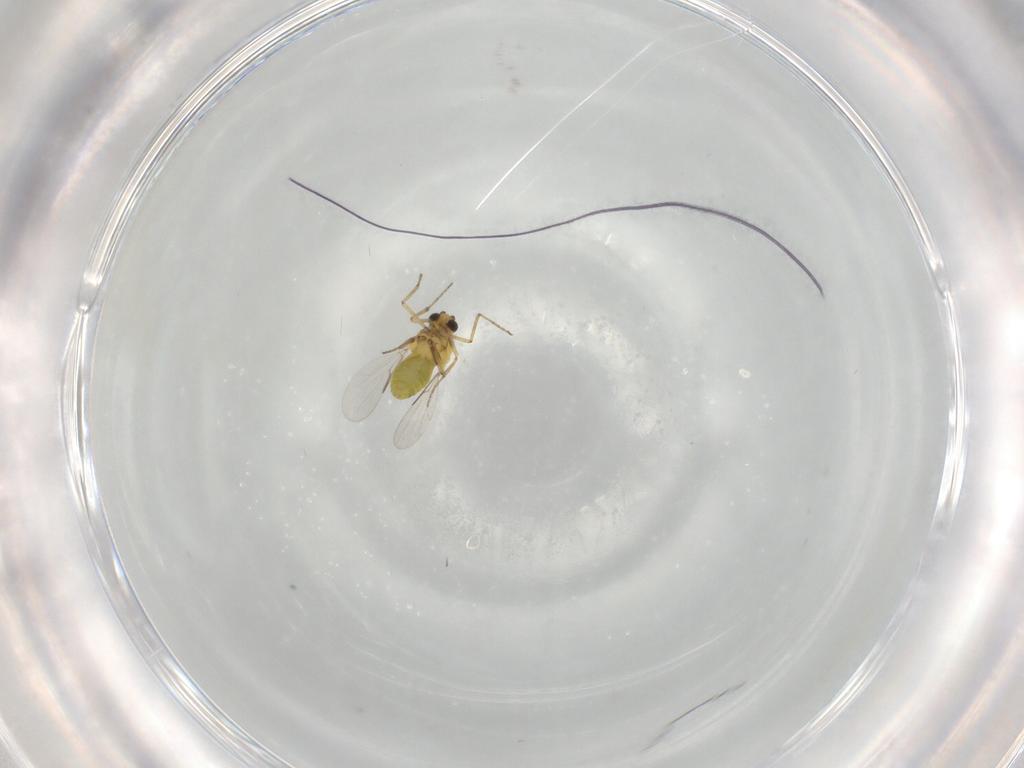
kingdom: Animalia
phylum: Arthropoda
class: Insecta
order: Diptera
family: Ceratopogonidae
